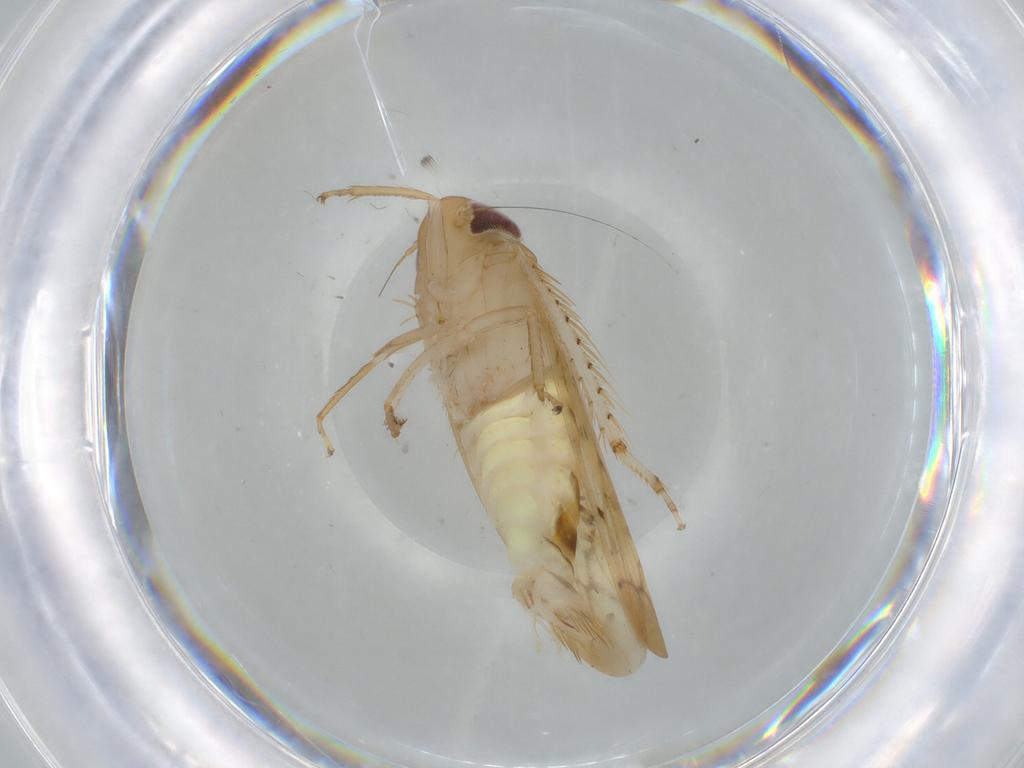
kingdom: Animalia
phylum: Arthropoda
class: Insecta
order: Hemiptera
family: Cicadellidae
